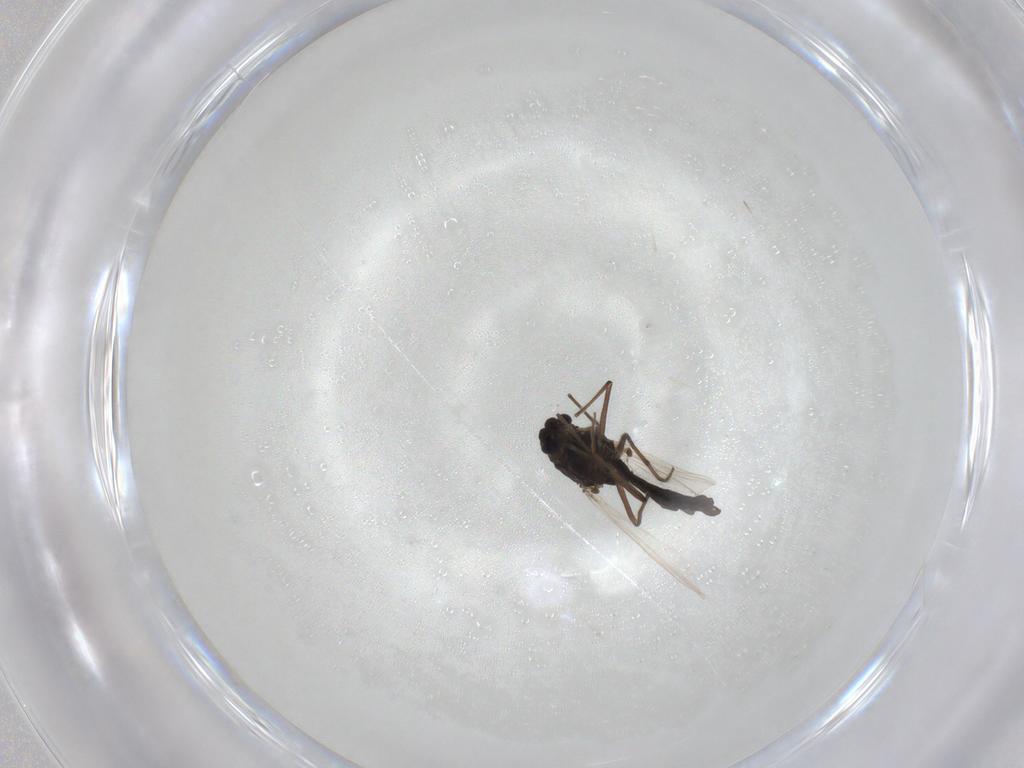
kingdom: Animalia
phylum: Arthropoda
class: Insecta
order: Diptera
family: Chironomidae
